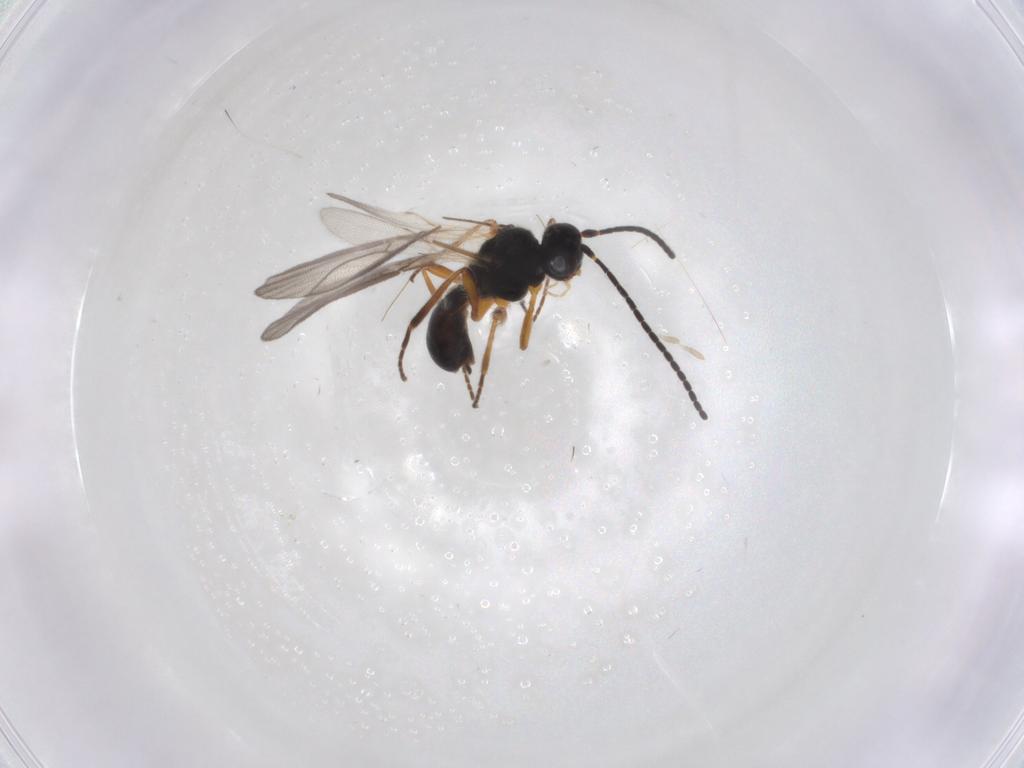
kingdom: Animalia
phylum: Arthropoda
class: Insecta
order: Hymenoptera
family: Braconidae
